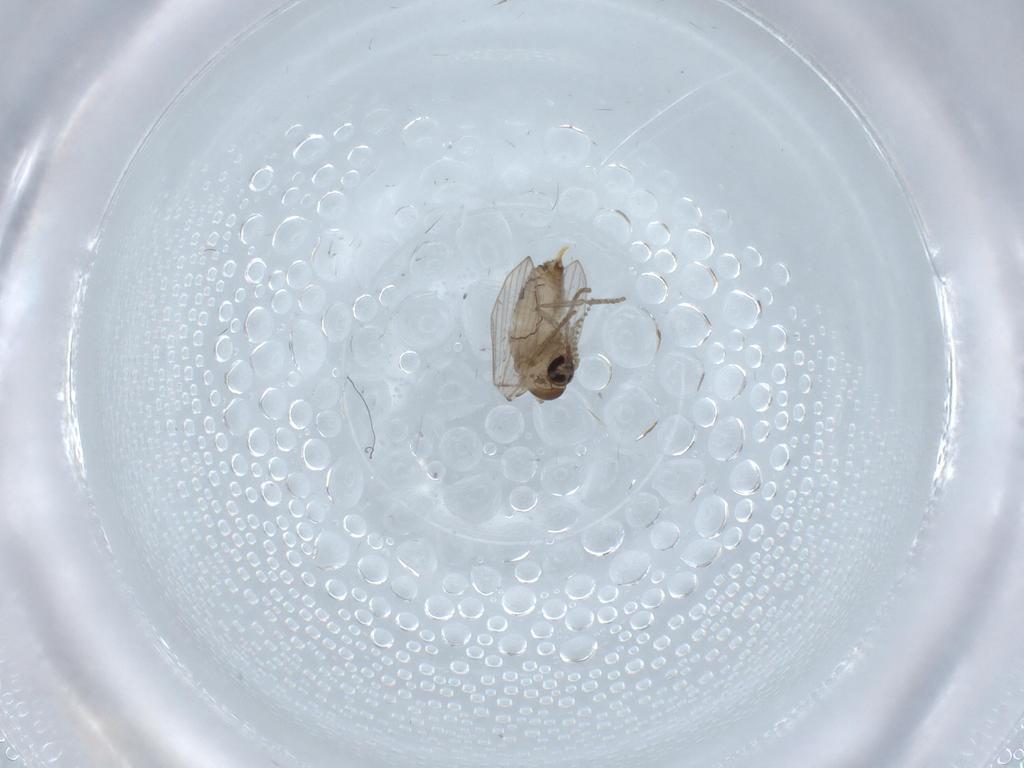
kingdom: Animalia
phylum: Arthropoda
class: Insecta
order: Diptera
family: Psychodidae
